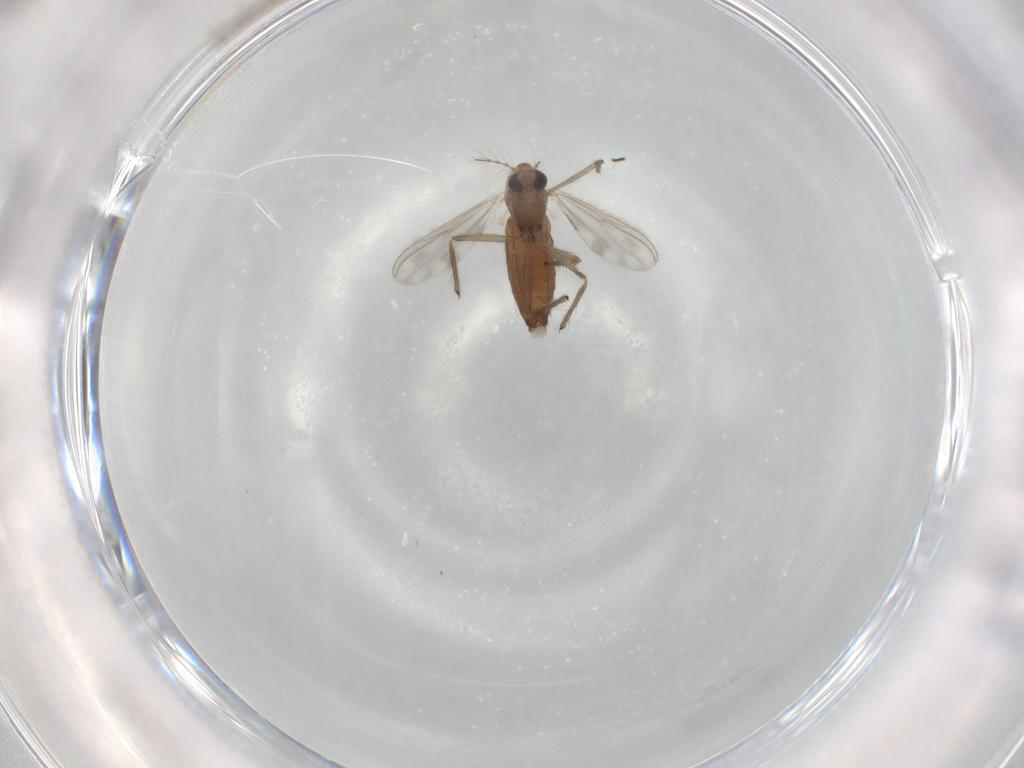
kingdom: Animalia
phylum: Arthropoda
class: Insecta
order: Diptera
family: Chironomidae
